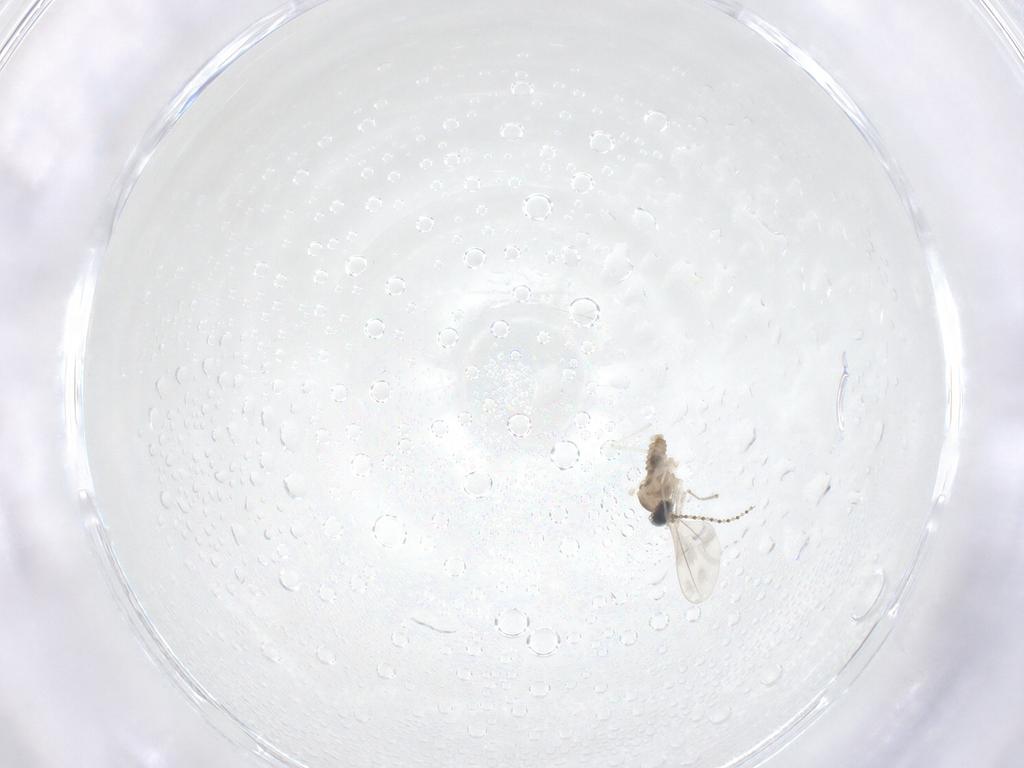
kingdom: Animalia
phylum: Arthropoda
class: Insecta
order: Diptera
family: Cecidomyiidae
